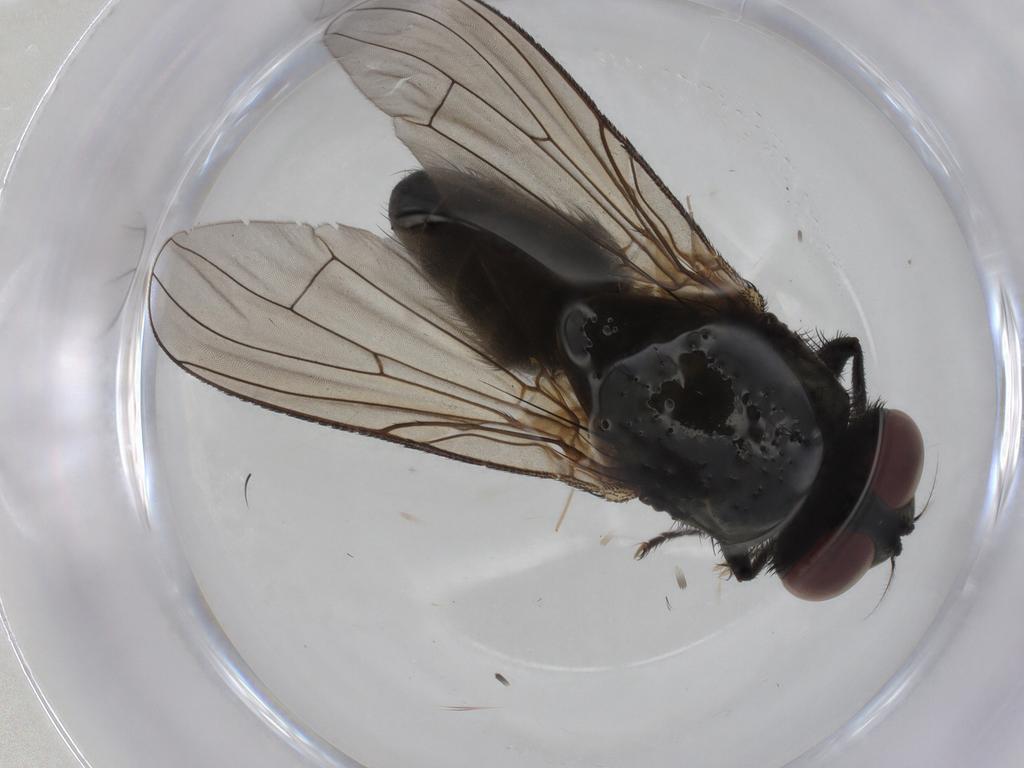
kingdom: Animalia
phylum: Arthropoda
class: Insecta
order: Diptera
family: Muscidae
